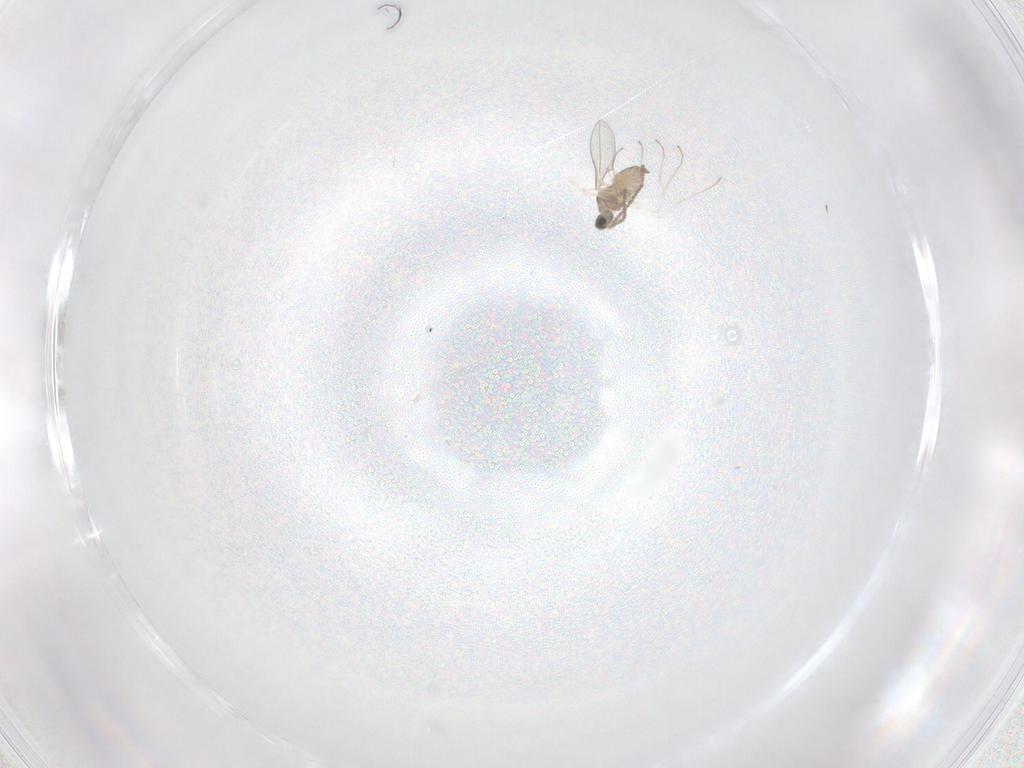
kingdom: Animalia
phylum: Arthropoda
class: Insecta
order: Diptera
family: Cecidomyiidae
